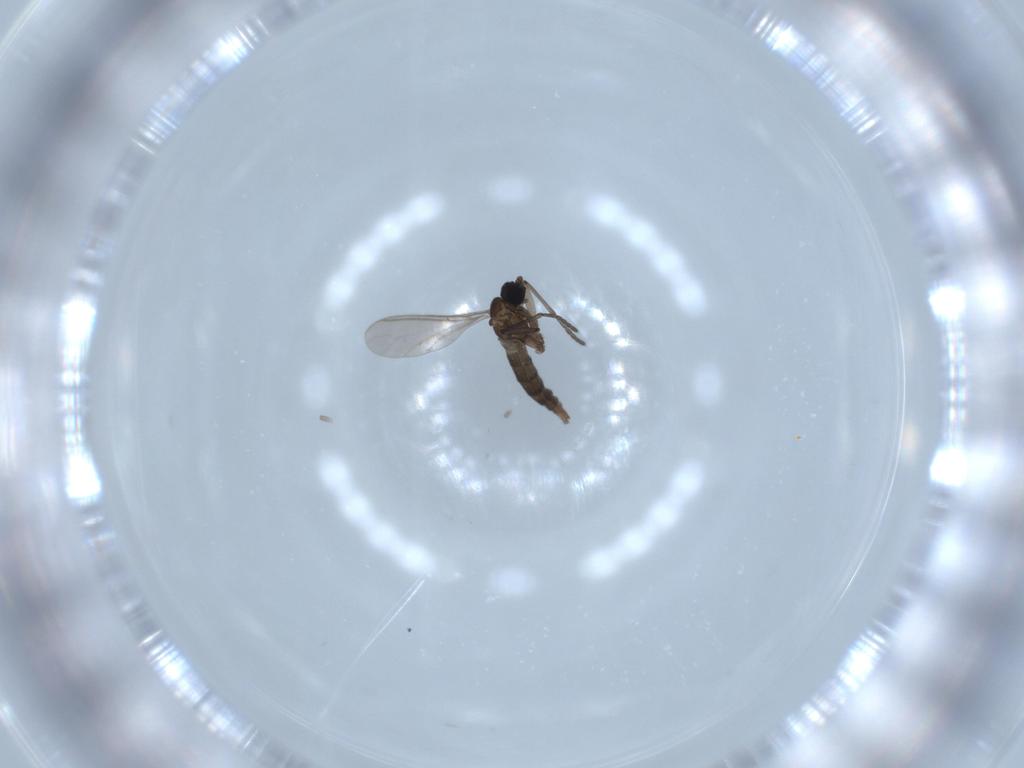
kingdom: Animalia
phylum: Arthropoda
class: Insecta
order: Diptera
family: Sciaridae
